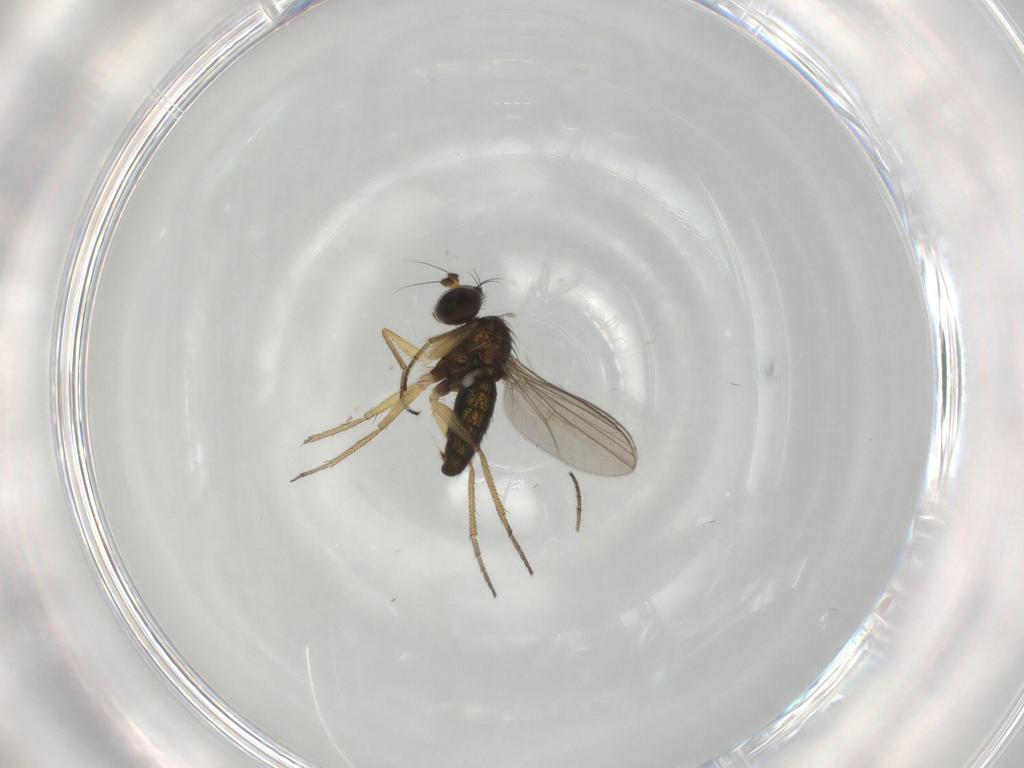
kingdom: Animalia
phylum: Arthropoda
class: Insecta
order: Diptera
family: Dolichopodidae
